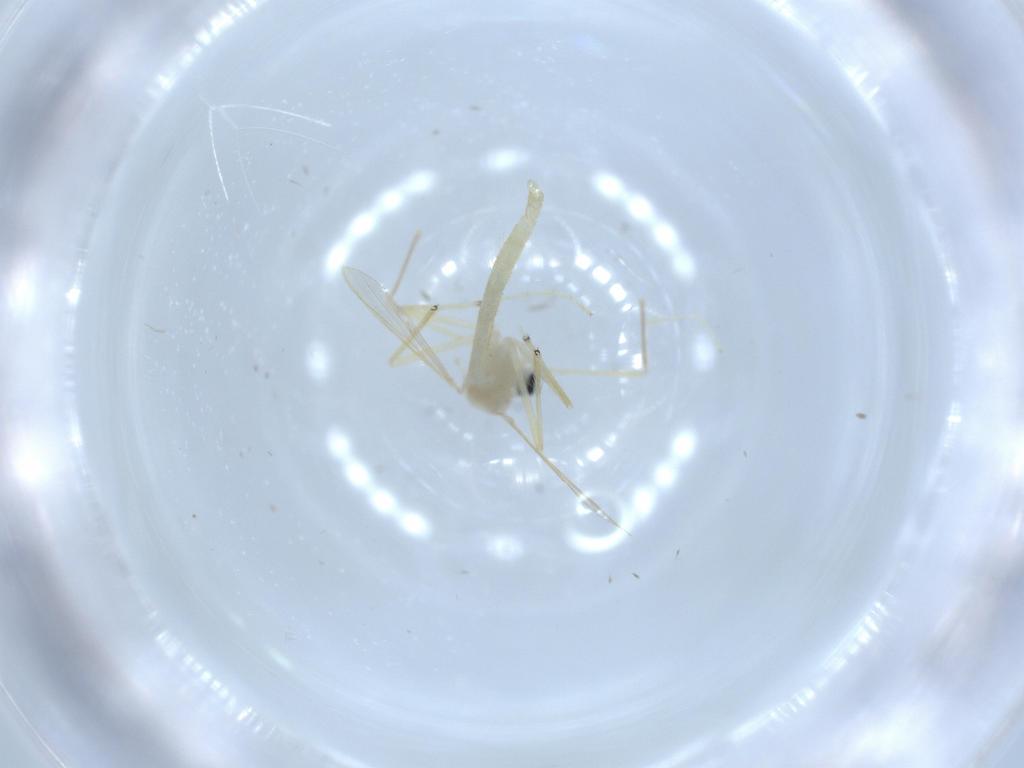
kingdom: Animalia
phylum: Arthropoda
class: Insecta
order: Diptera
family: Chironomidae
